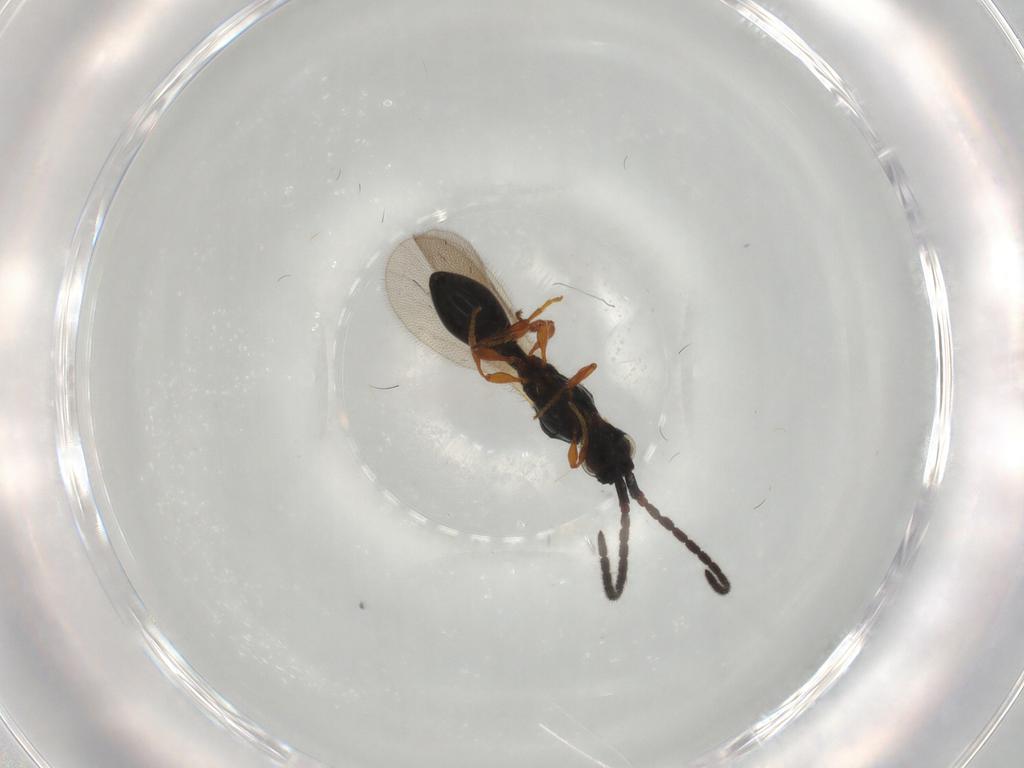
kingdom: Animalia
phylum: Arthropoda
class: Insecta
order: Hymenoptera
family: Diapriidae
